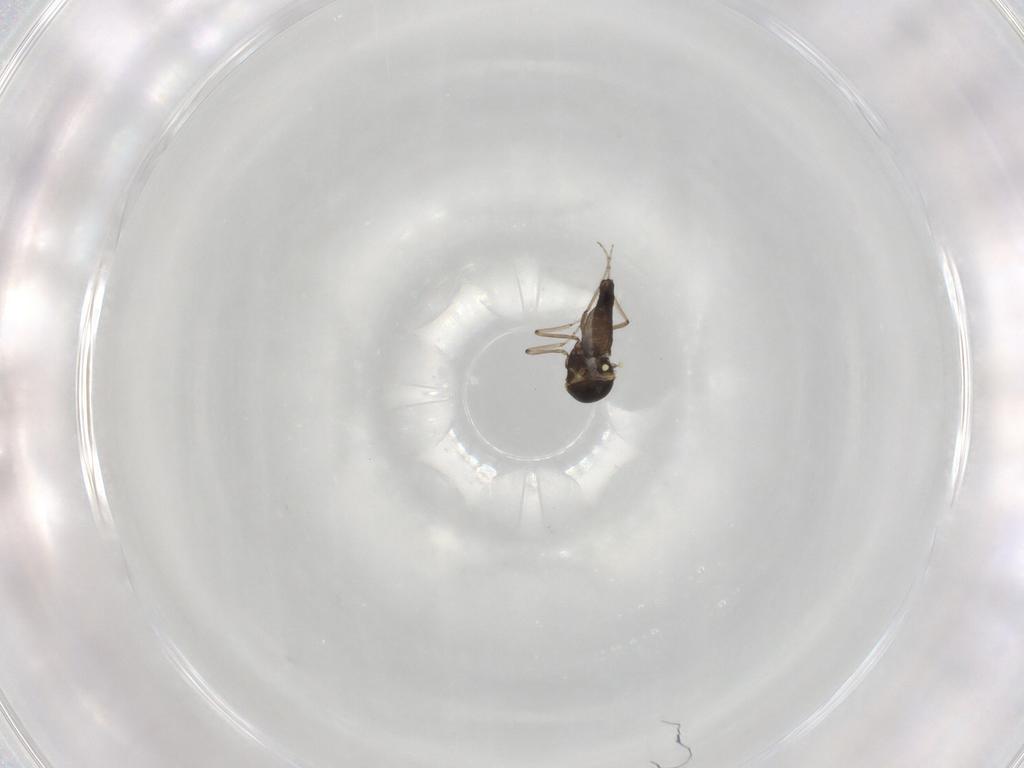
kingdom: Animalia
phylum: Arthropoda
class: Insecta
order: Diptera
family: Ceratopogonidae
